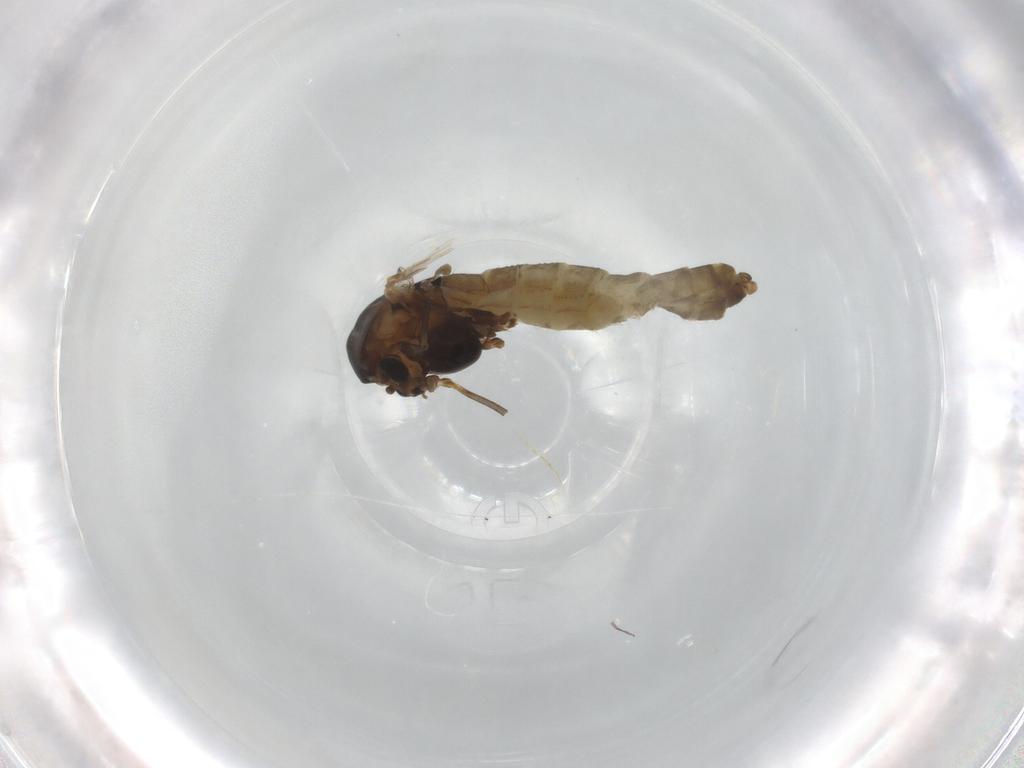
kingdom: Animalia
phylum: Arthropoda
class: Insecta
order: Diptera
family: Chironomidae
